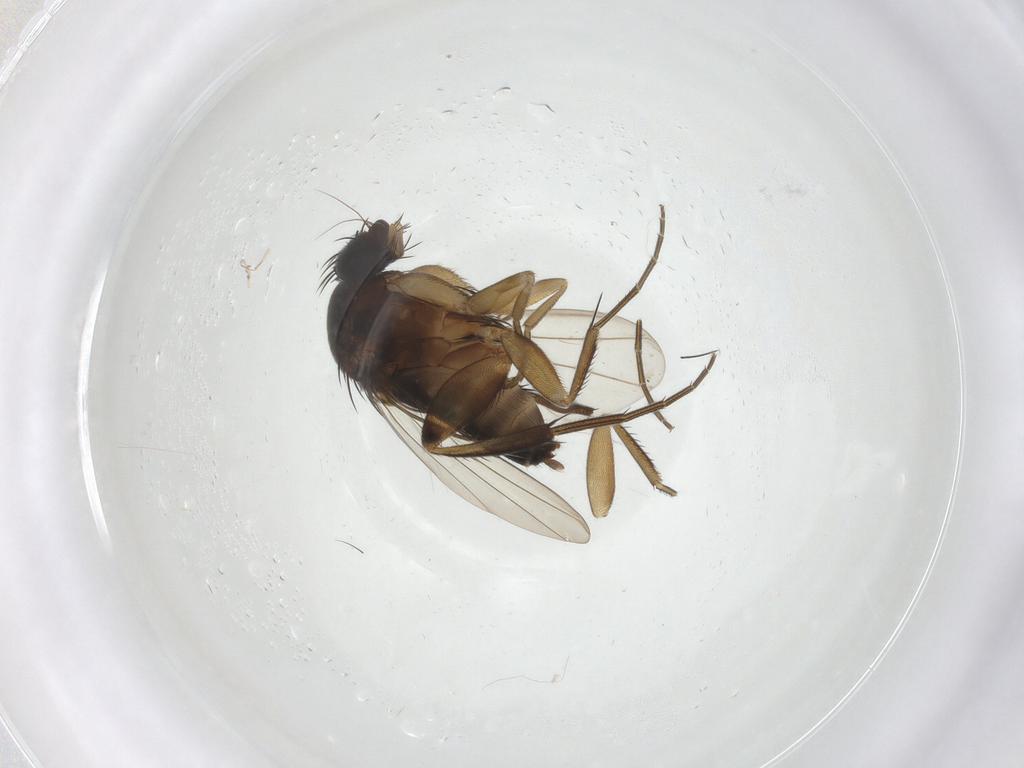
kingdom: Animalia
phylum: Arthropoda
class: Insecta
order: Diptera
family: Phoridae
